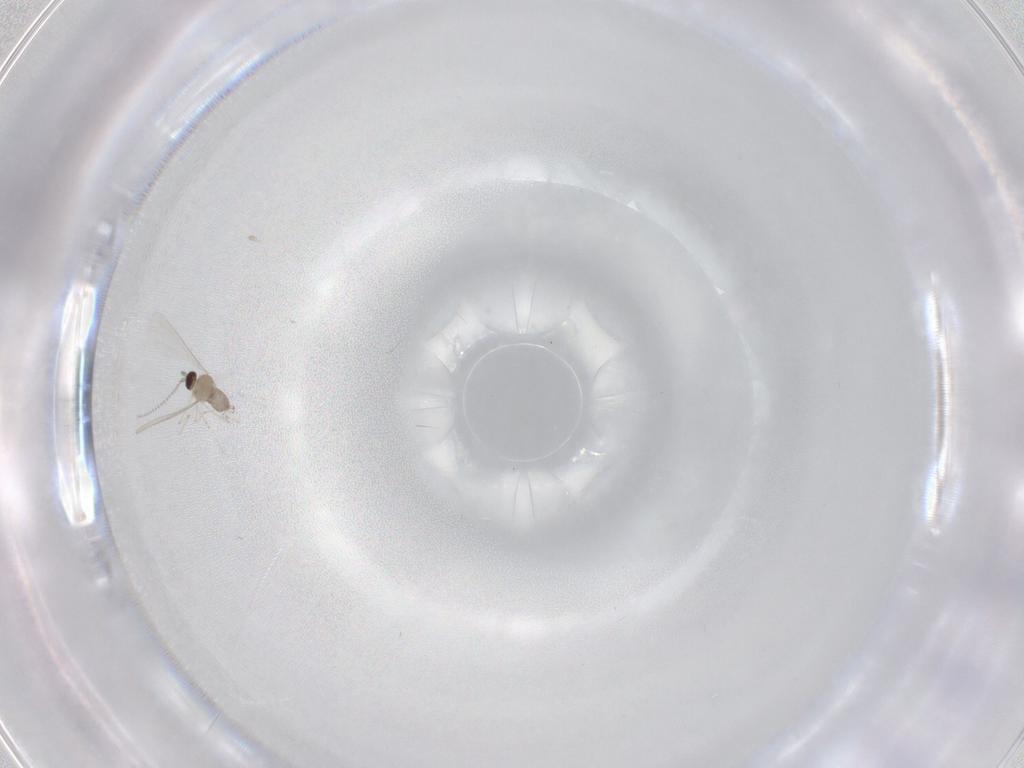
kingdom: Animalia
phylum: Arthropoda
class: Insecta
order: Diptera
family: Cecidomyiidae
